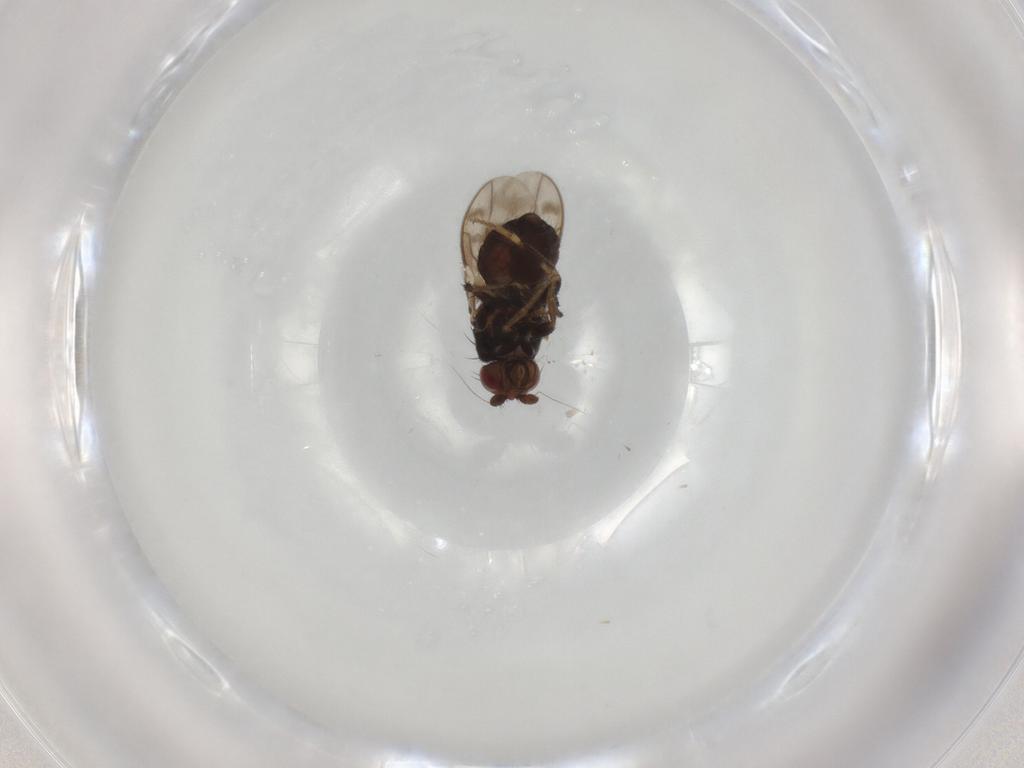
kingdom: Animalia
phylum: Arthropoda
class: Insecta
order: Diptera
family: Sphaeroceridae
